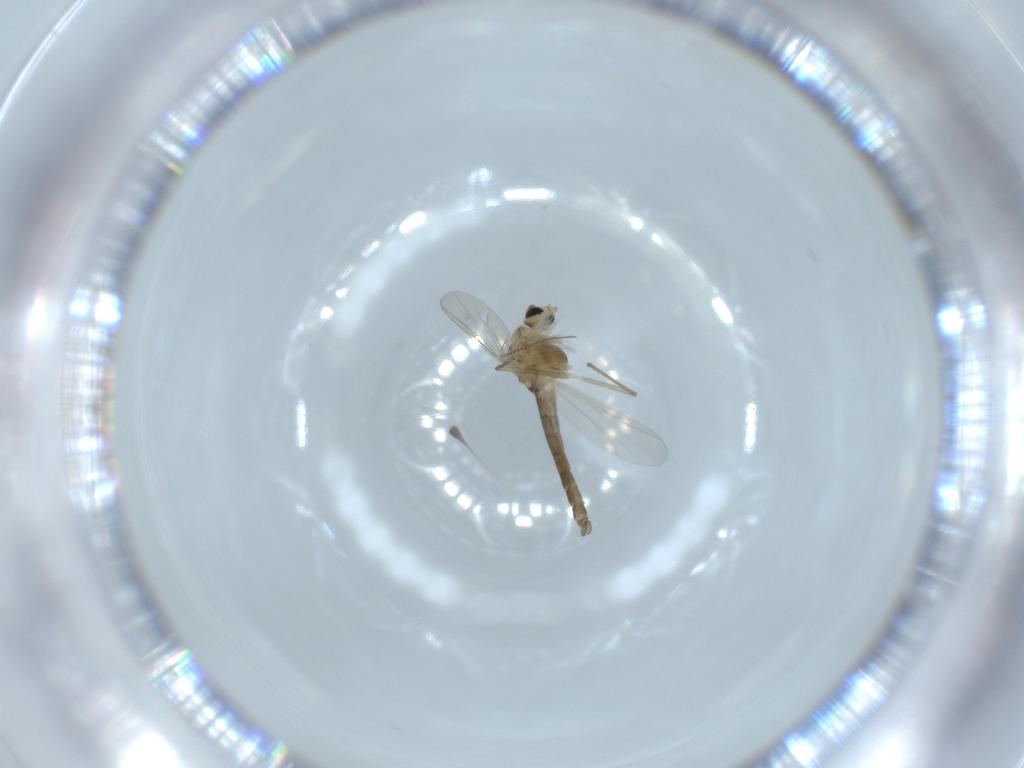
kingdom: Animalia
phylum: Arthropoda
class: Insecta
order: Diptera
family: Chironomidae
